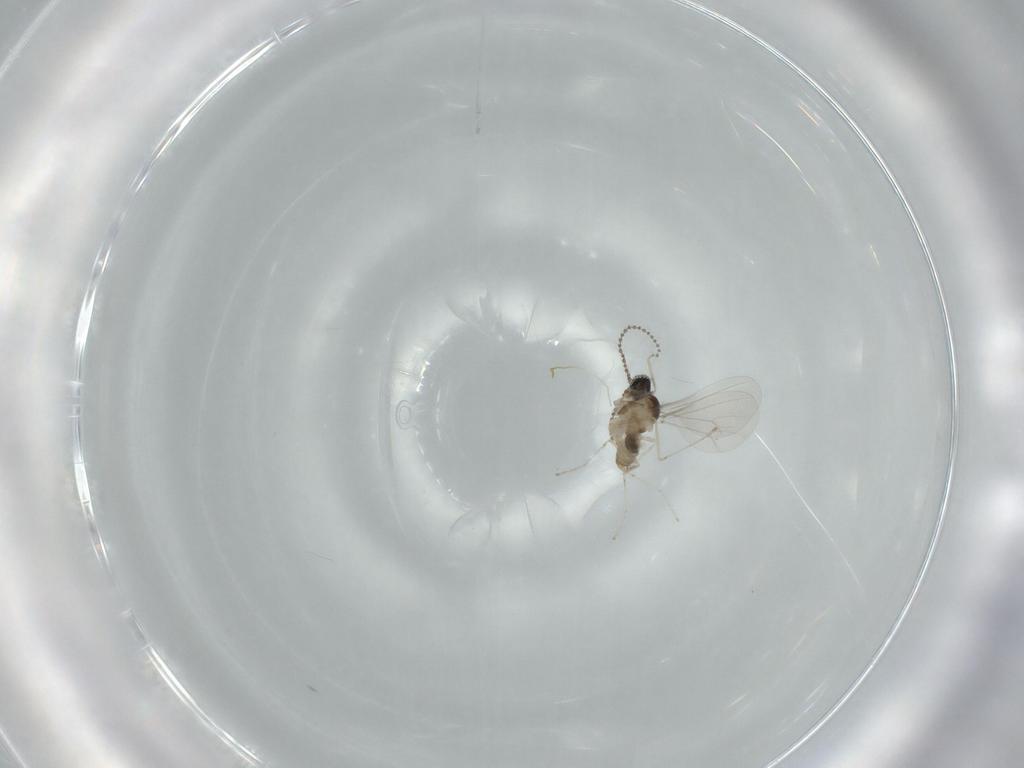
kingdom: Animalia
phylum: Arthropoda
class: Insecta
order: Diptera
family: Cecidomyiidae
